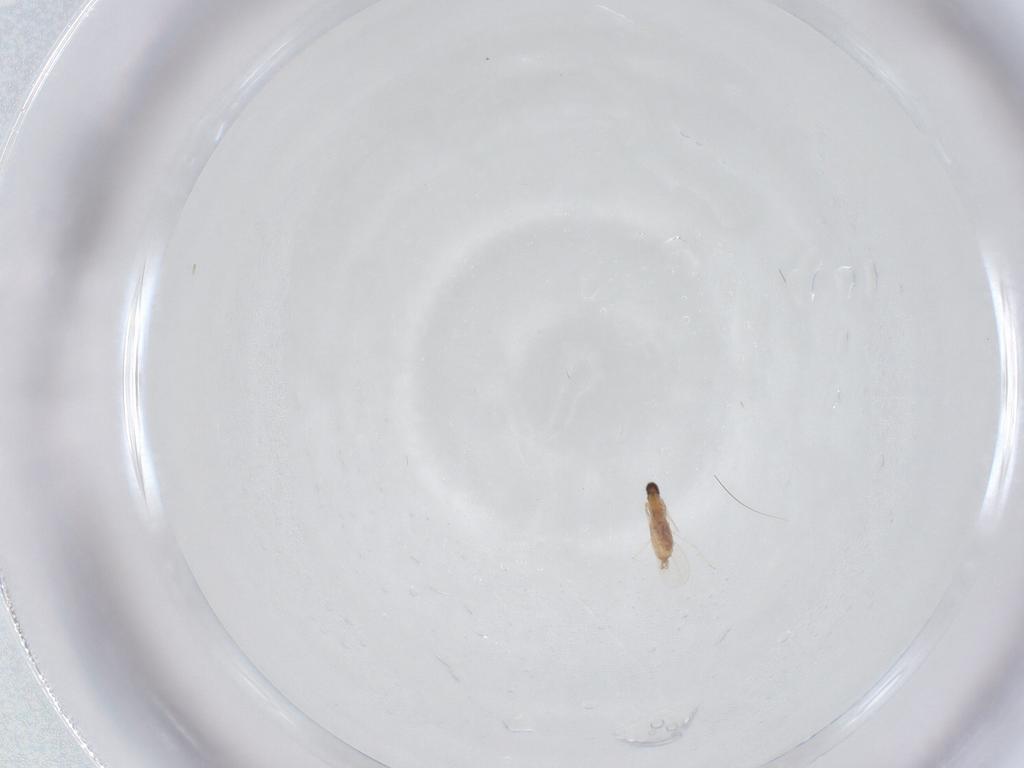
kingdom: Animalia
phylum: Arthropoda
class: Insecta
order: Diptera
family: Cecidomyiidae
